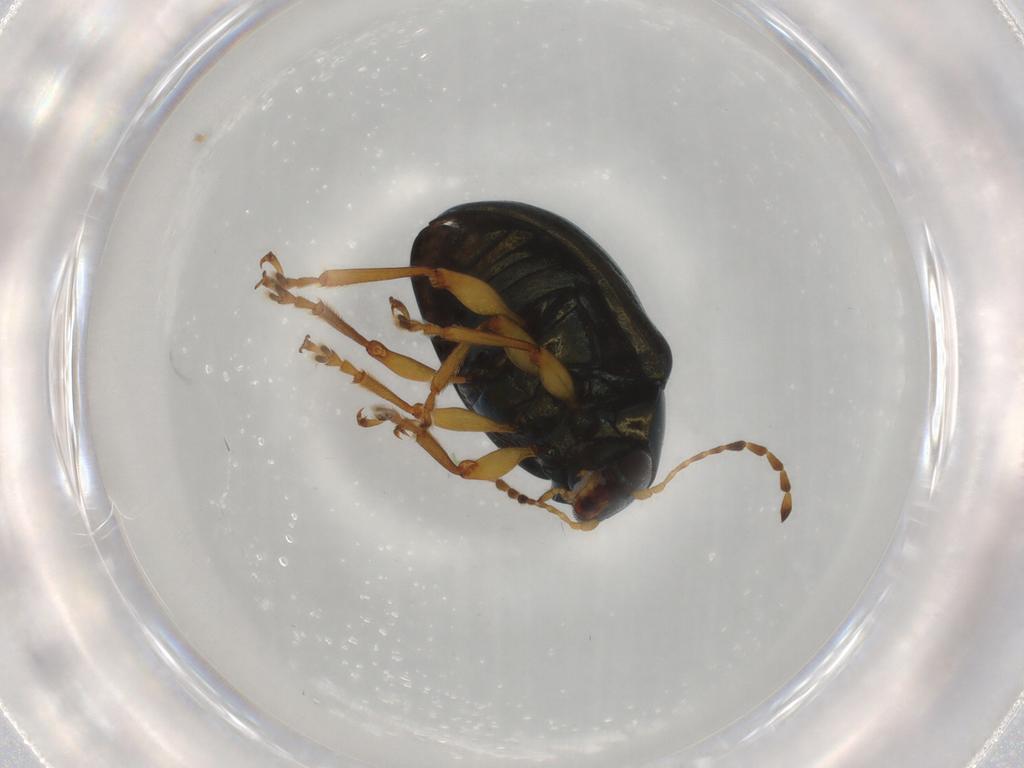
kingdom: Animalia
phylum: Arthropoda
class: Insecta
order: Coleoptera
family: Chrysomelidae
